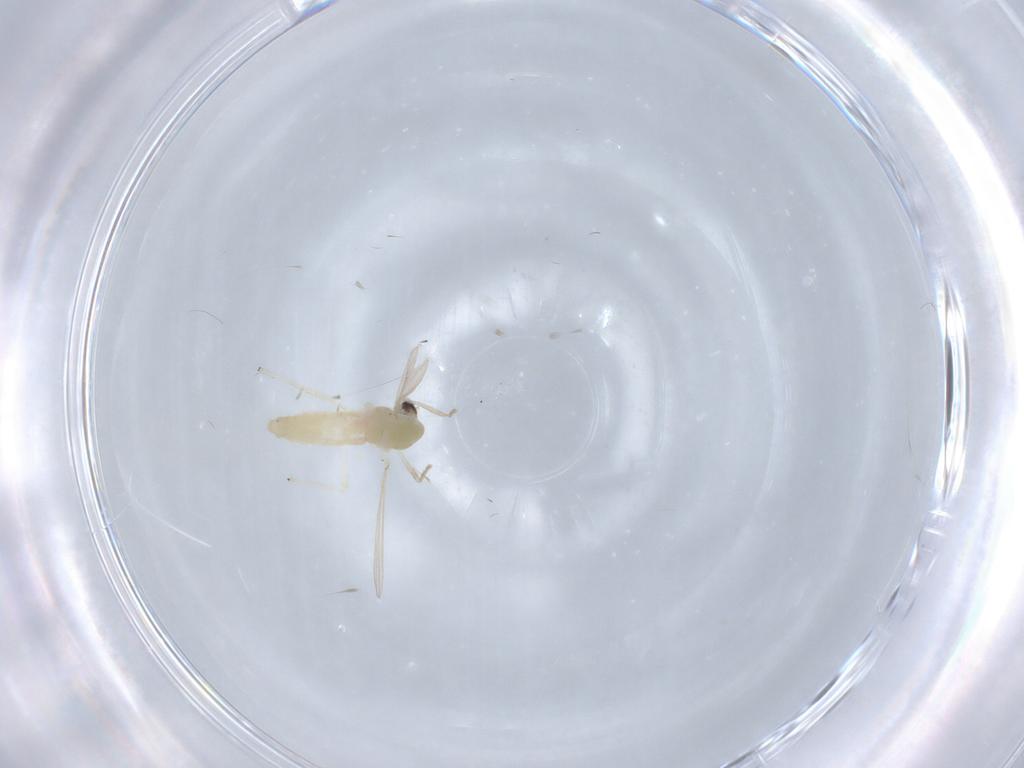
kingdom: Animalia
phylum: Arthropoda
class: Insecta
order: Diptera
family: Chironomidae
